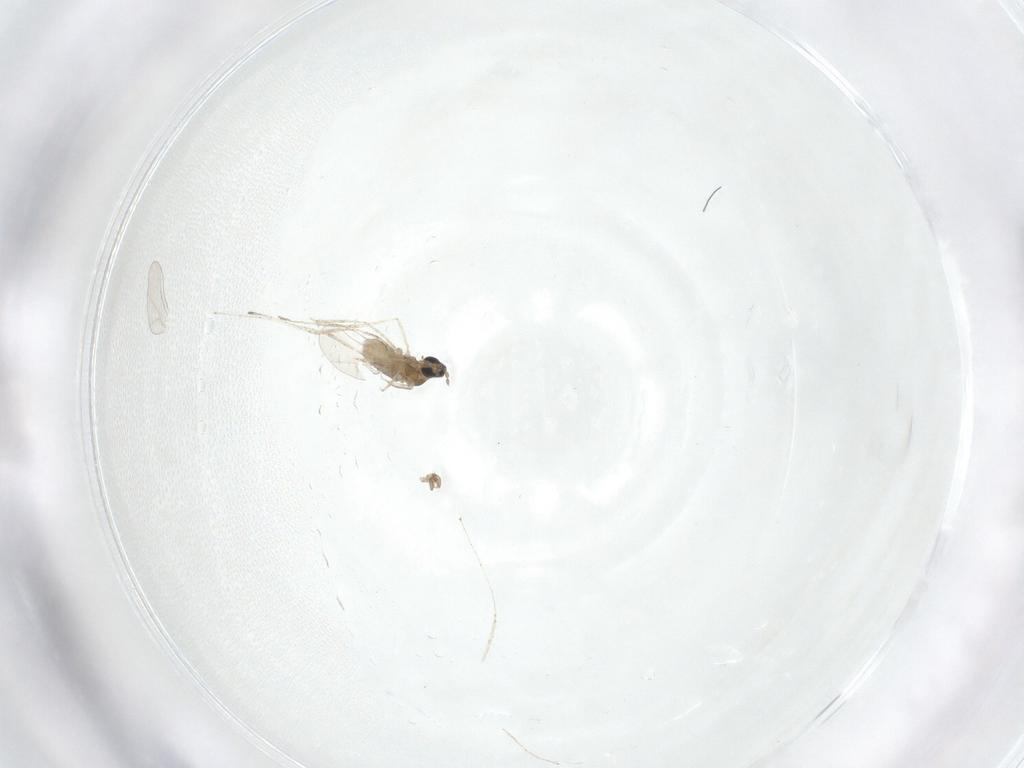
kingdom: Animalia
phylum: Arthropoda
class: Insecta
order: Diptera
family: Cecidomyiidae
